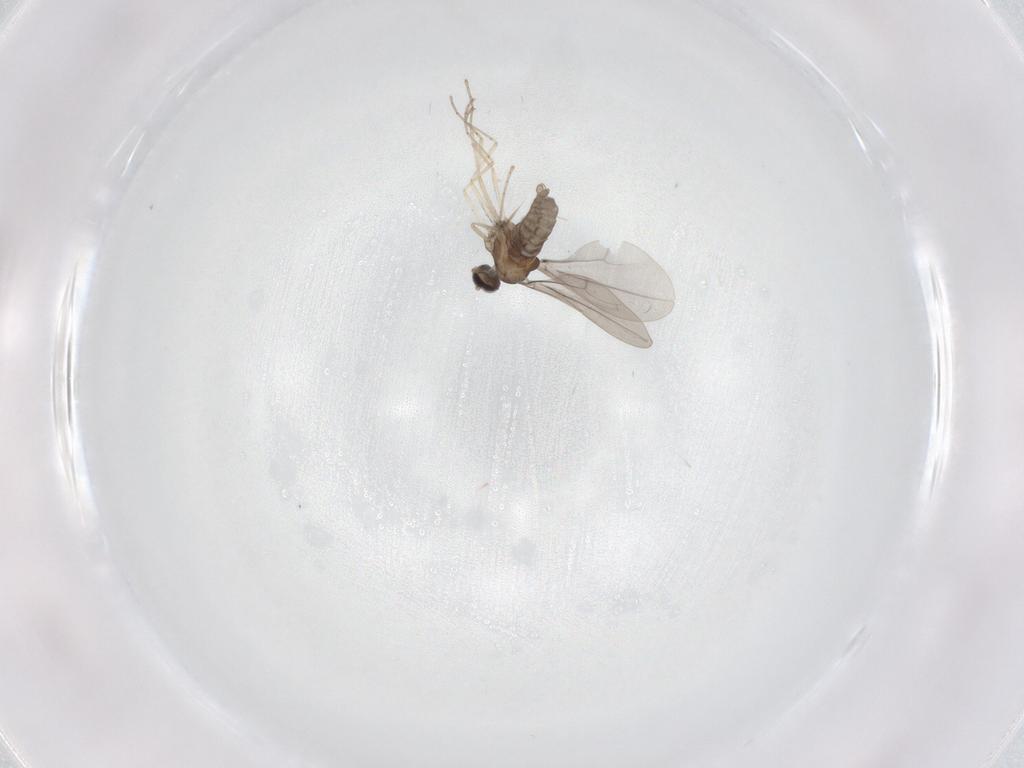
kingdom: Animalia
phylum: Arthropoda
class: Insecta
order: Diptera
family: Cecidomyiidae
